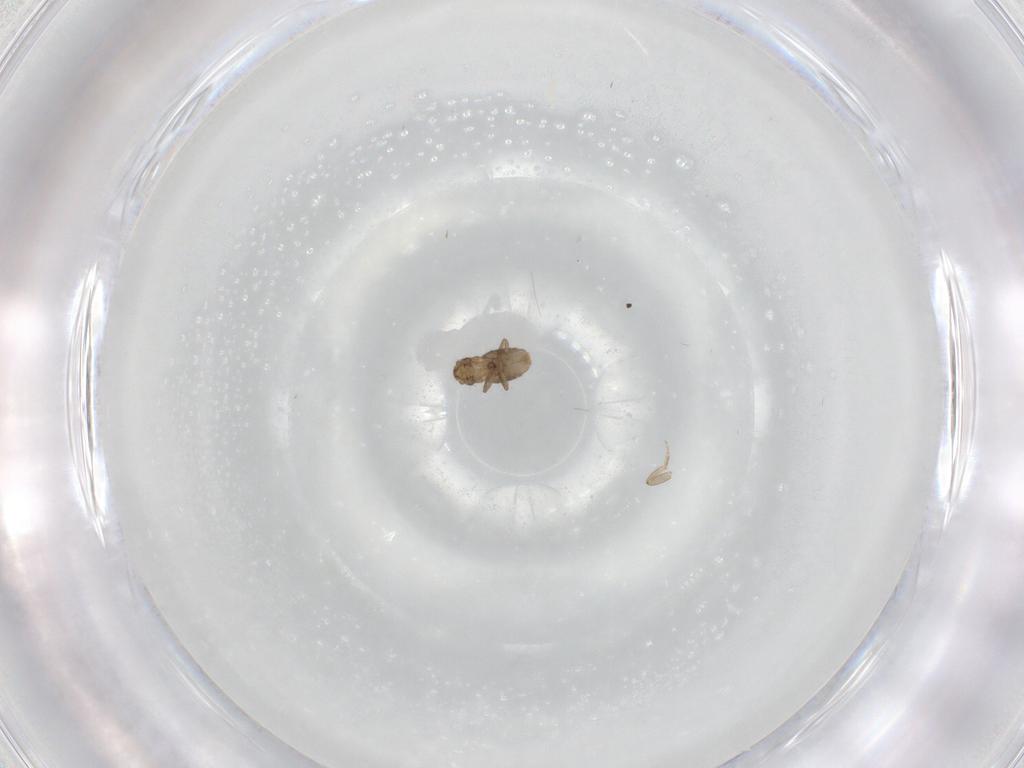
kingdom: Animalia
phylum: Arthropoda
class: Insecta
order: Diptera
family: Cecidomyiidae
